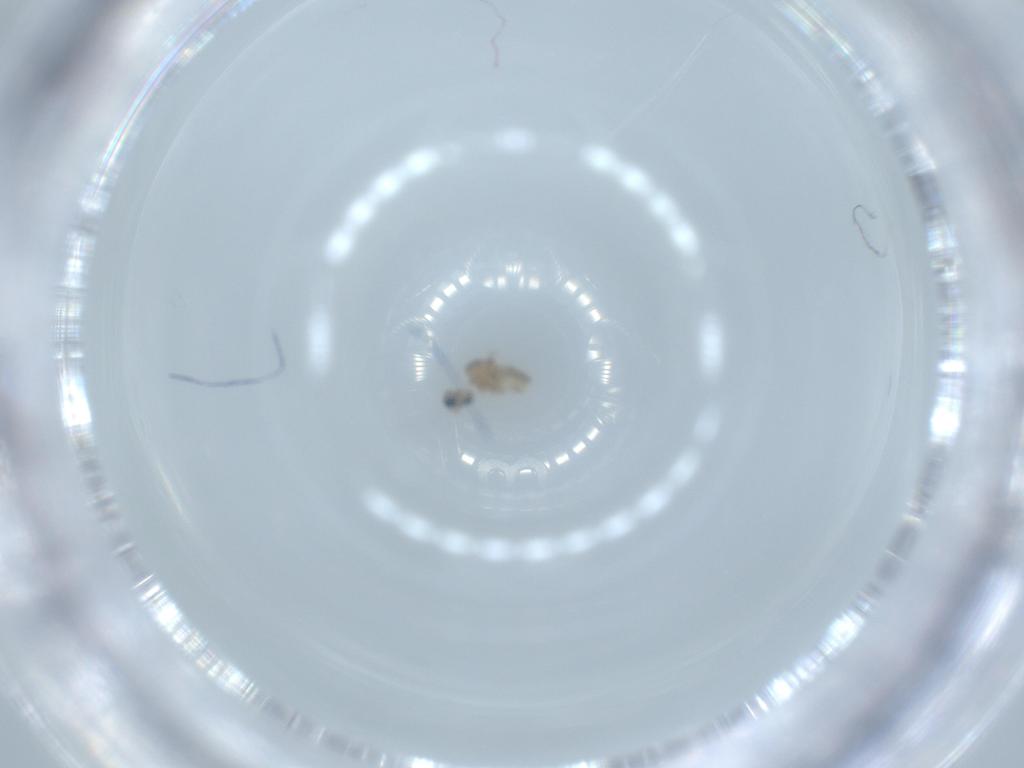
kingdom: Animalia
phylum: Arthropoda
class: Insecta
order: Diptera
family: Cecidomyiidae
